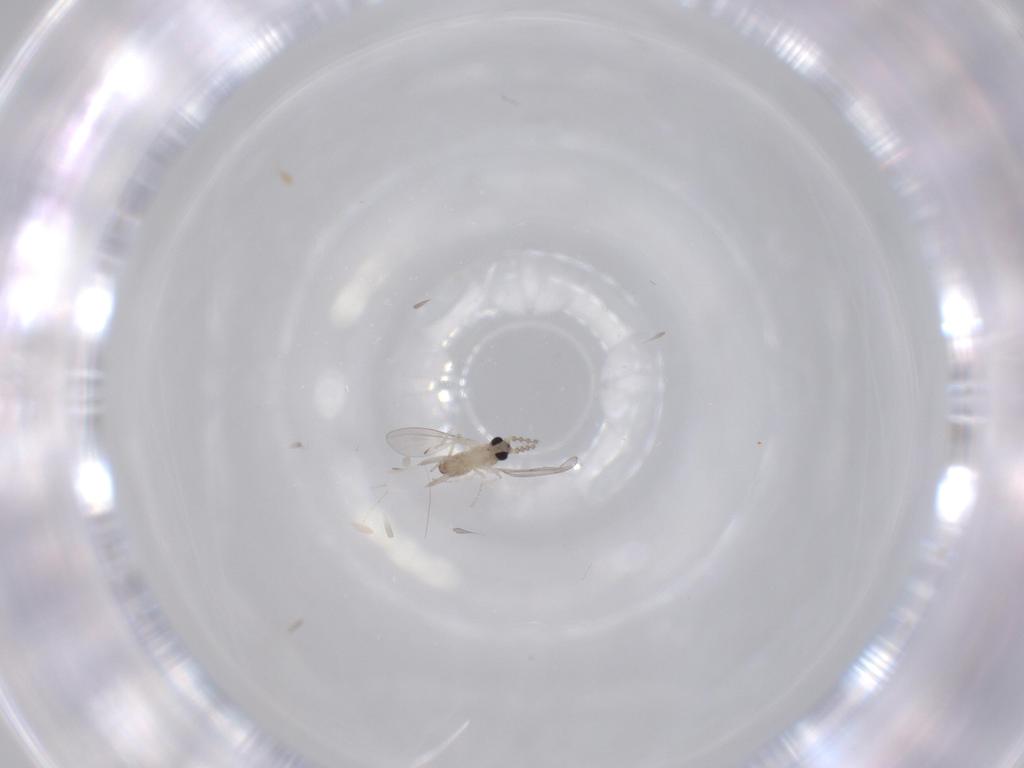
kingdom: Animalia
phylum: Arthropoda
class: Insecta
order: Diptera
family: Cecidomyiidae
